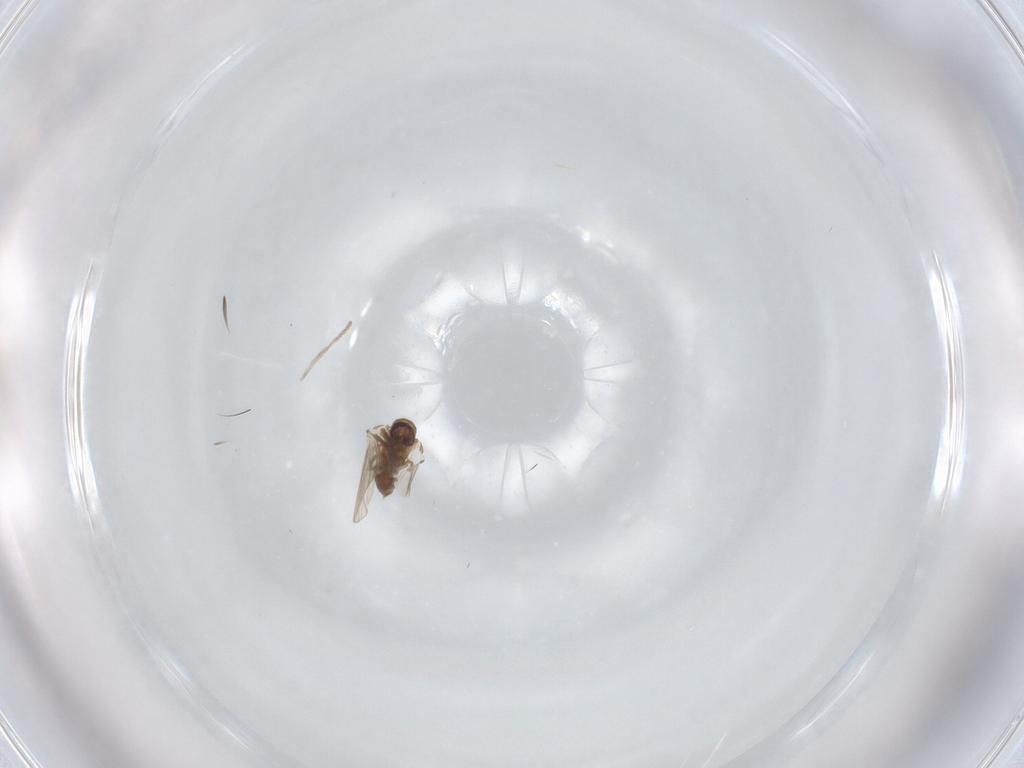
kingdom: Animalia
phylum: Arthropoda
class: Insecta
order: Diptera
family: Psychodidae
